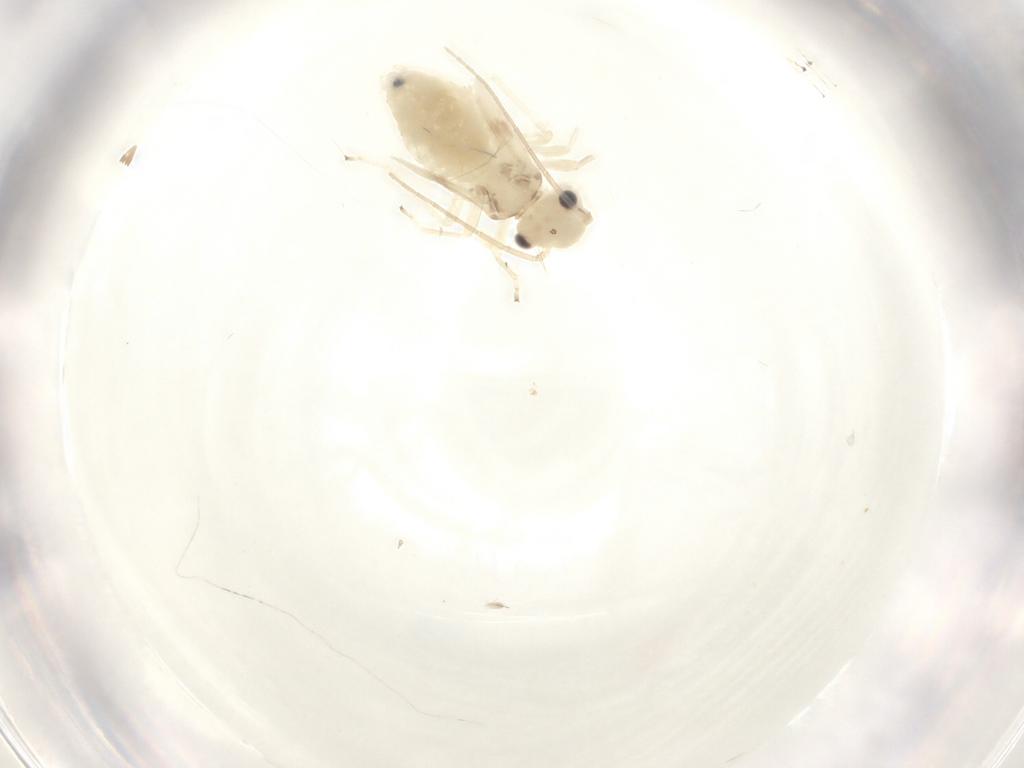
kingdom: Animalia
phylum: Arthropoda
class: Insecta
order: Psocodea
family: Stenopsocidae
